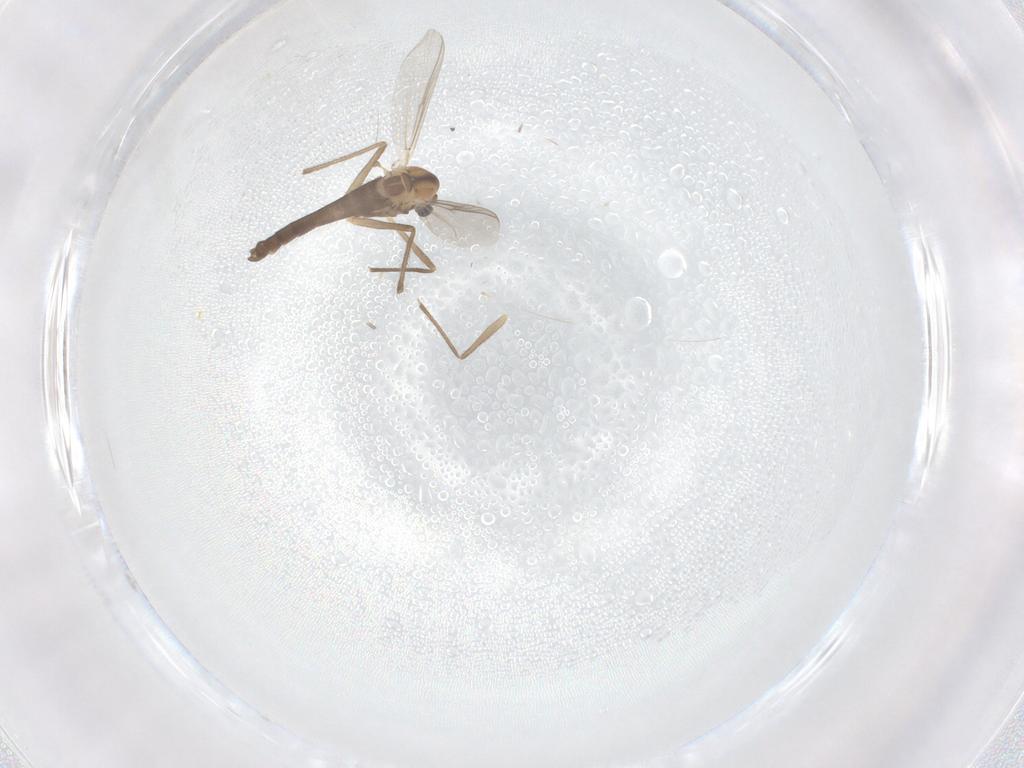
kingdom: Animalia
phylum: Arthropoda
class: Insecta
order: Diptera
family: Chironomidae
